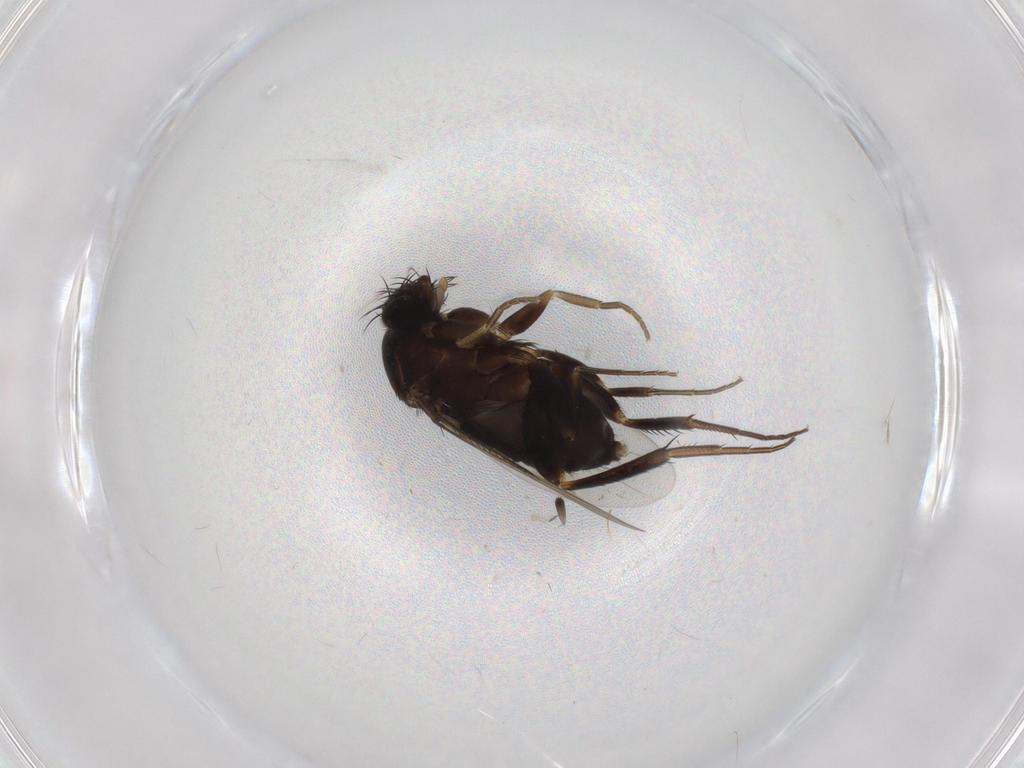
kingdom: Animalia
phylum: Arthropoda
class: Insecta
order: Diptera
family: Phoridae
